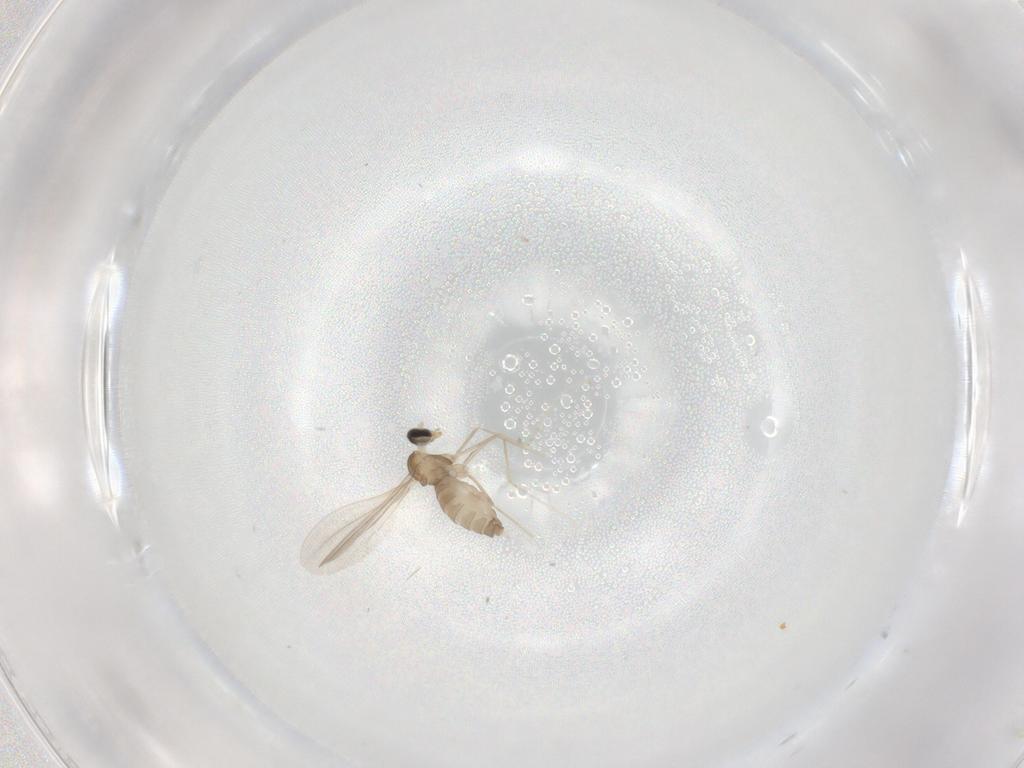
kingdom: Animalia
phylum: Arthropoda
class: Insecta
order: Diptera
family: Cecidomyiidae
